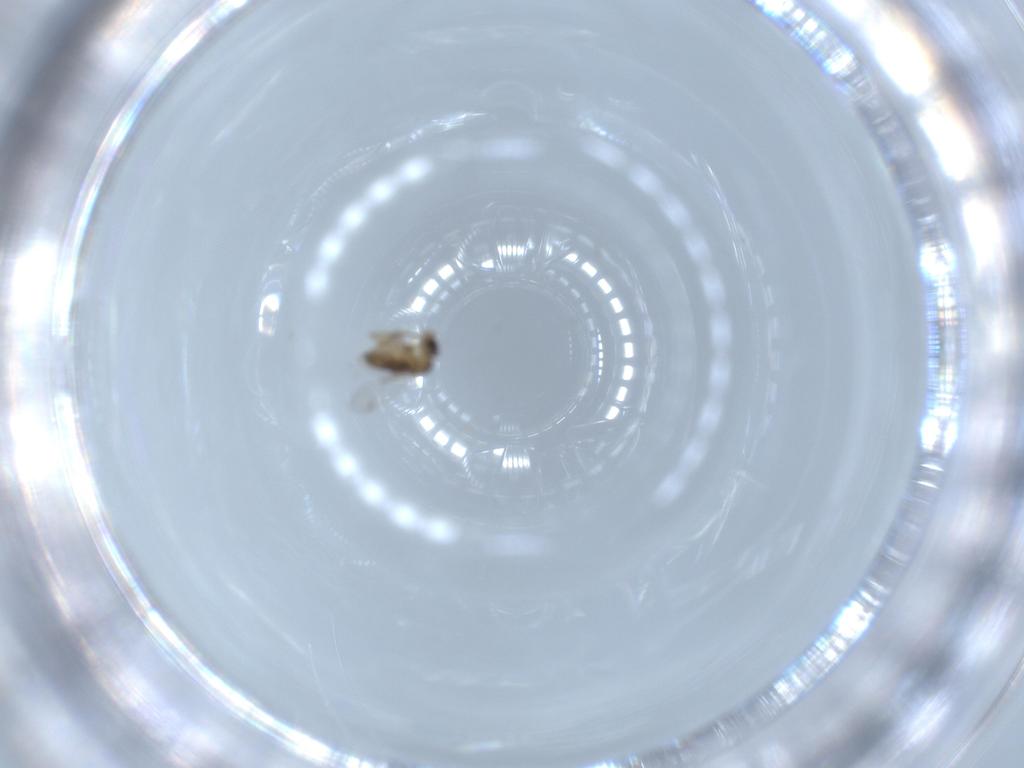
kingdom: Animalia
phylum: Arthropoda
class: Insecta
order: Diptera
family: Phoridae
